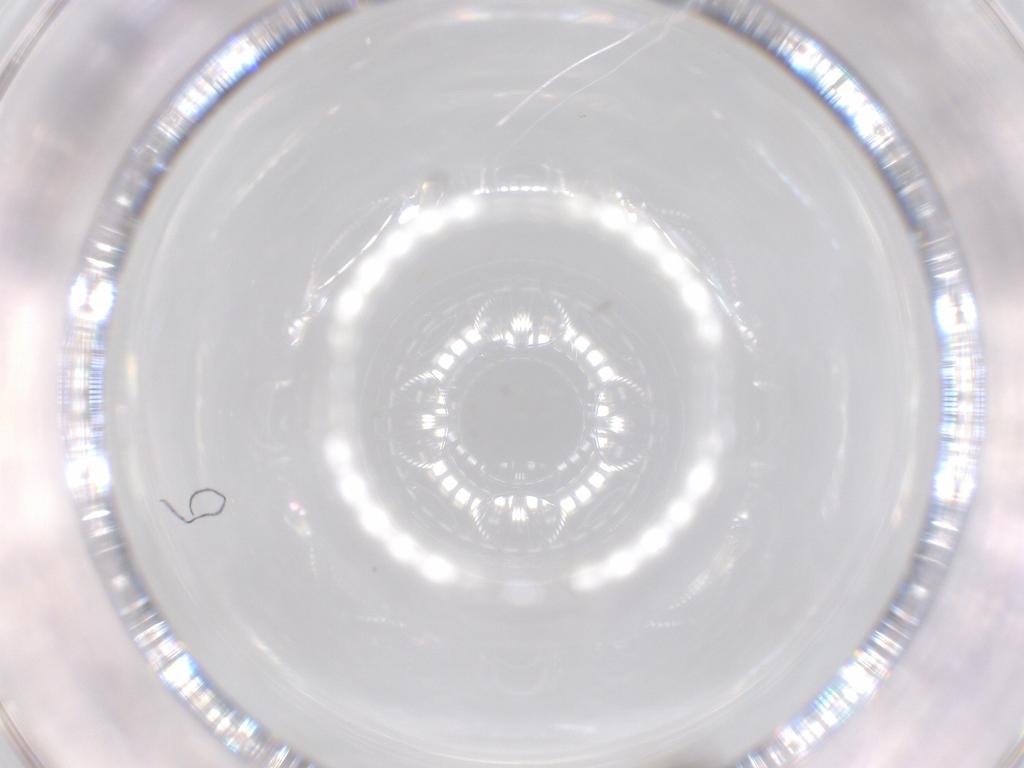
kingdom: Animalia
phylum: Arthropoda
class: Insecta
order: Hymenoptera
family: Scelionidae
